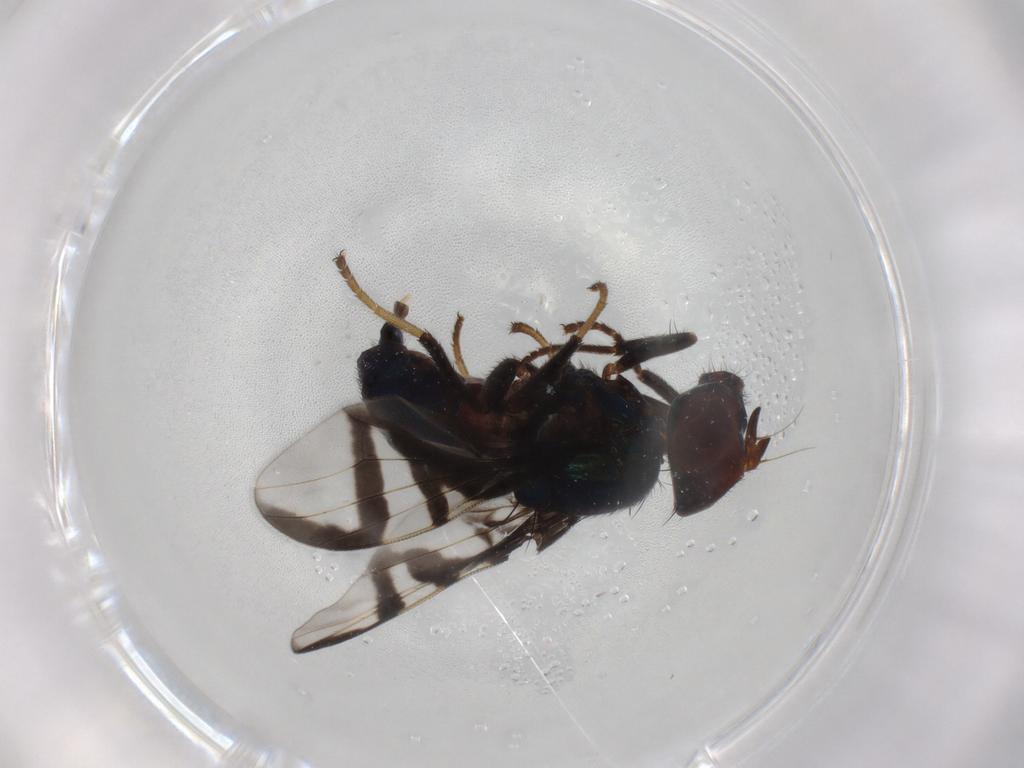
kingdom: Animalia
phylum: Arthropoda
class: Insecta
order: Diptera
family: Platystomatidae
